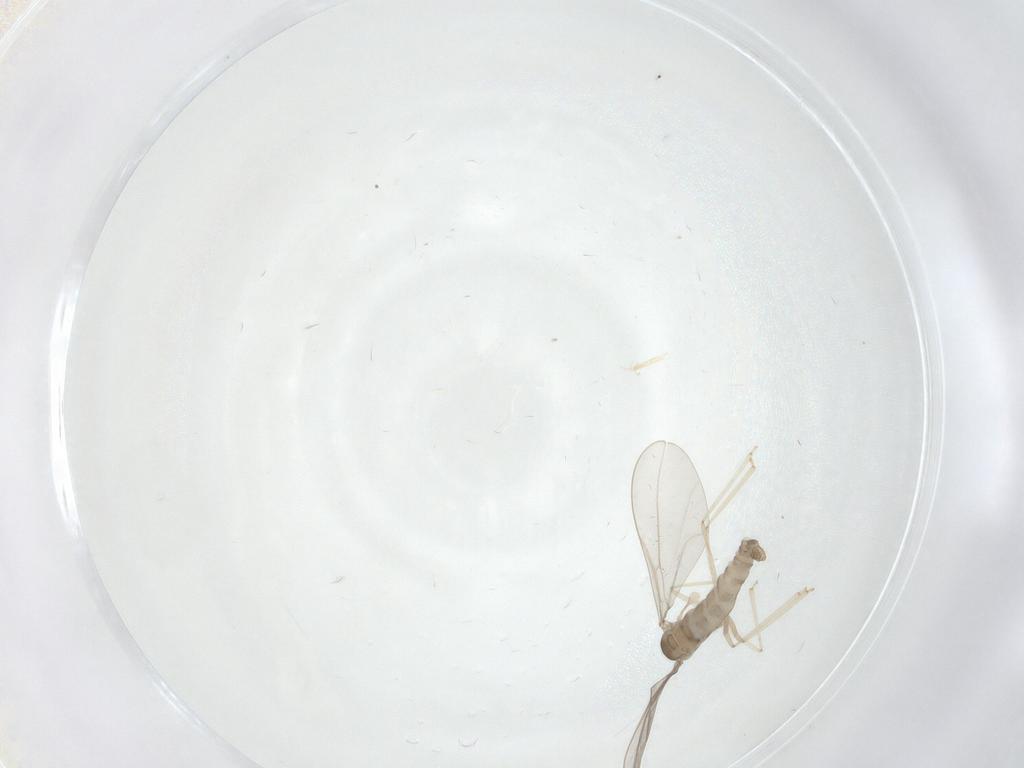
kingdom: Animalia
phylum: Arthropoda
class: Insecta
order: Diptera
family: Cecidomyiidae
